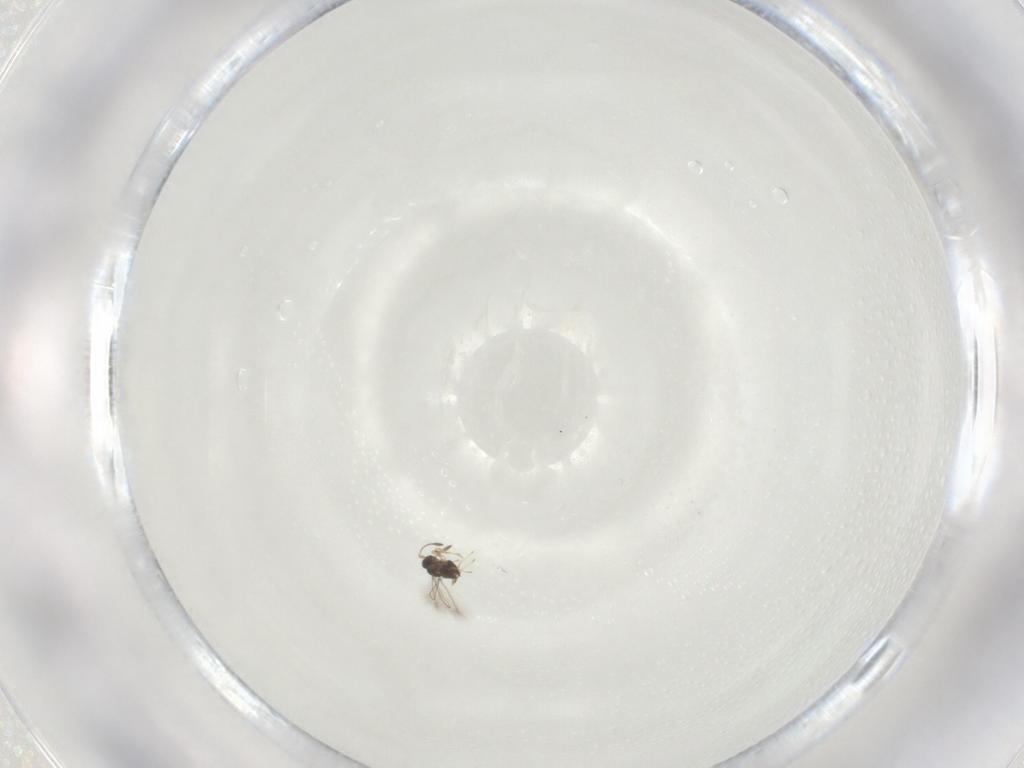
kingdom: Animalia
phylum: Arthropoda
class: Insecta
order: Hymenoptera
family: Mymaridae
